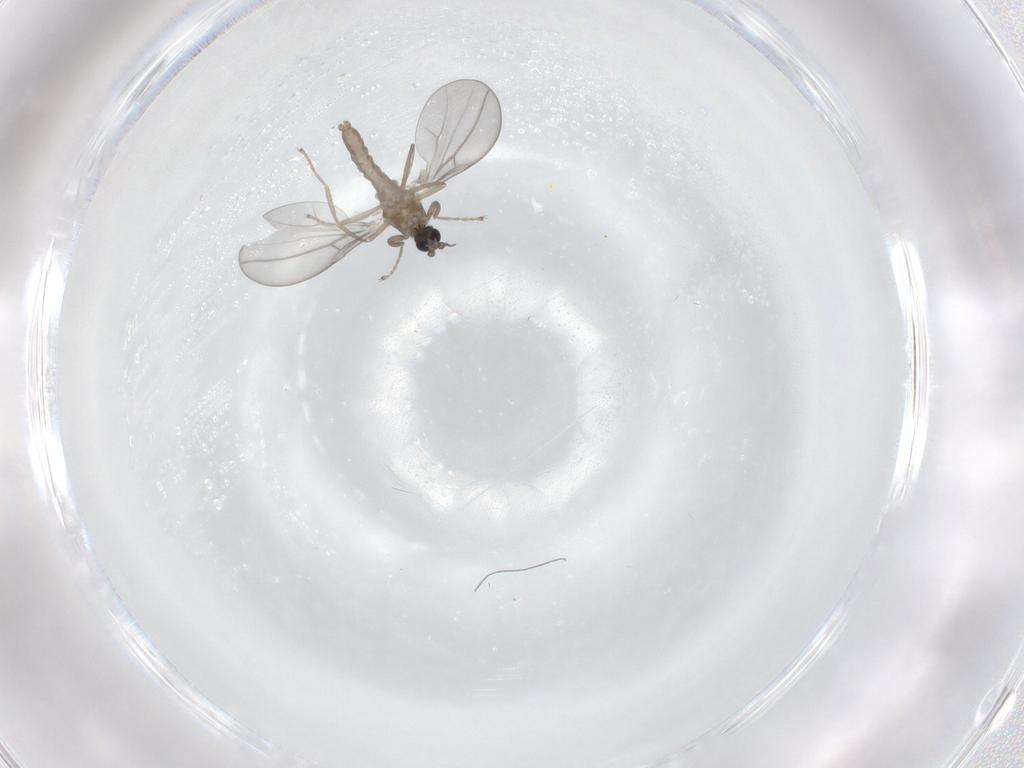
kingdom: Animalia
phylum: Arthropoda
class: Insecta
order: Diptera
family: Cecidomyiidae
